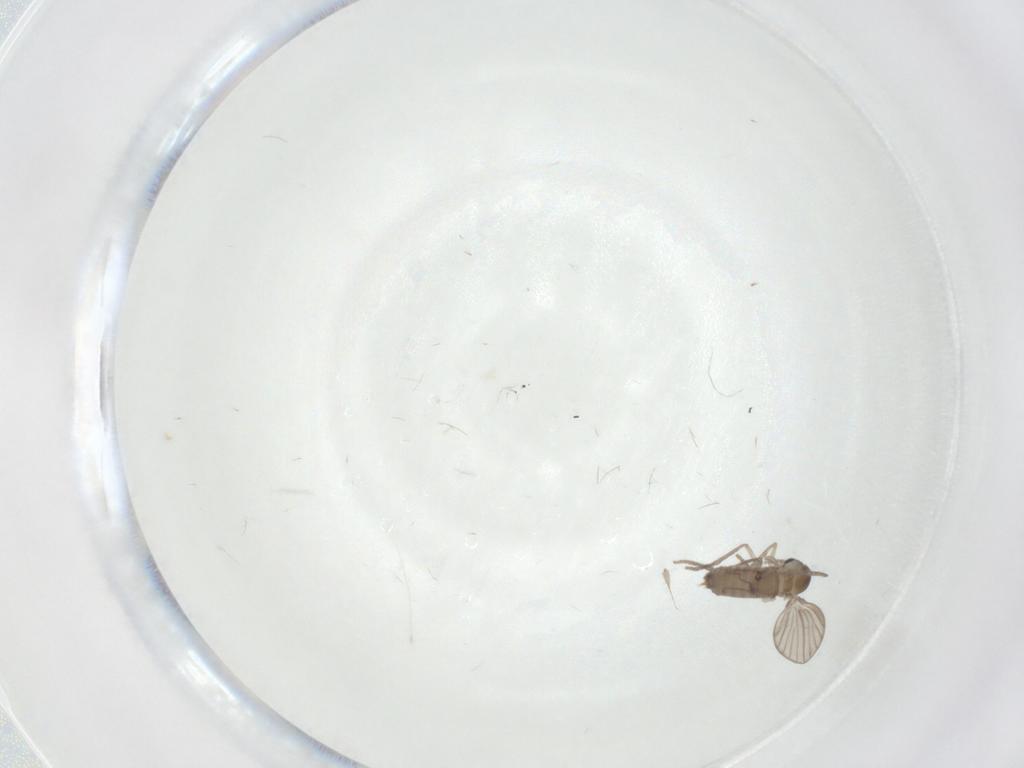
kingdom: Animalia
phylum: Arthropoda
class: Insecta
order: Diptera
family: Psychodidae
